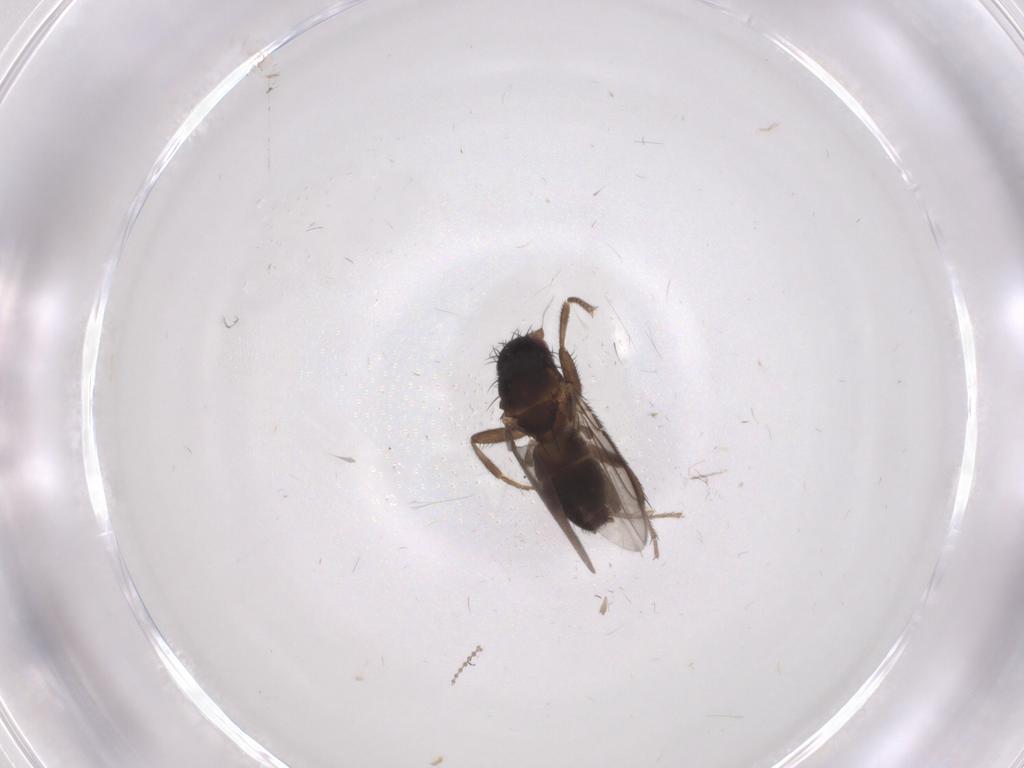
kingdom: Animalia
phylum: Arthropoda
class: Insecta
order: Diptera
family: Sphaeroceridae
